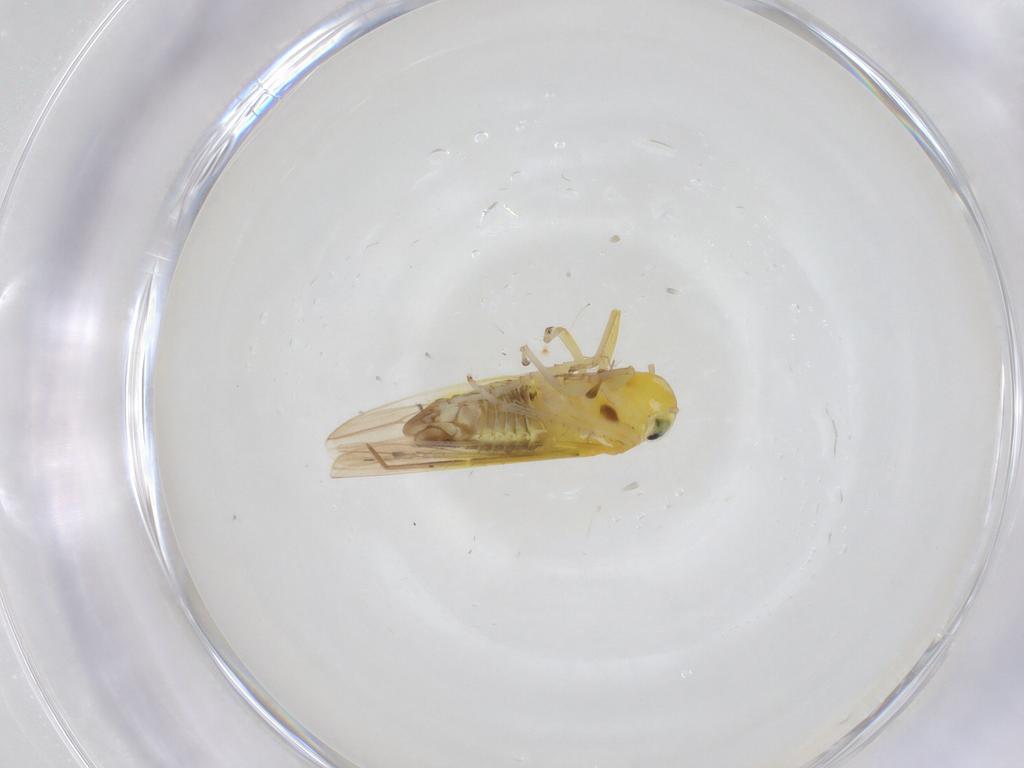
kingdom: Animalia
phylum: Arthropoda
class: Insecta
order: Hemiptera
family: Cicadellidae
